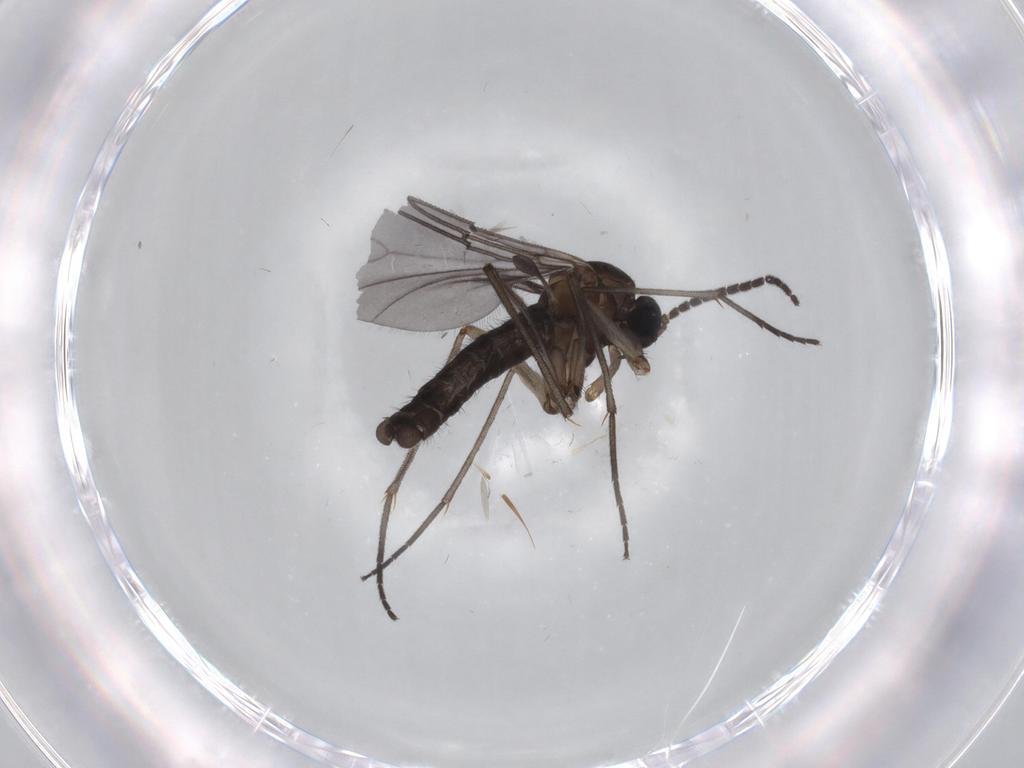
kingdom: Animalia
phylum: Arthropoda
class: Insecta
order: Diptera
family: Sciaridae
